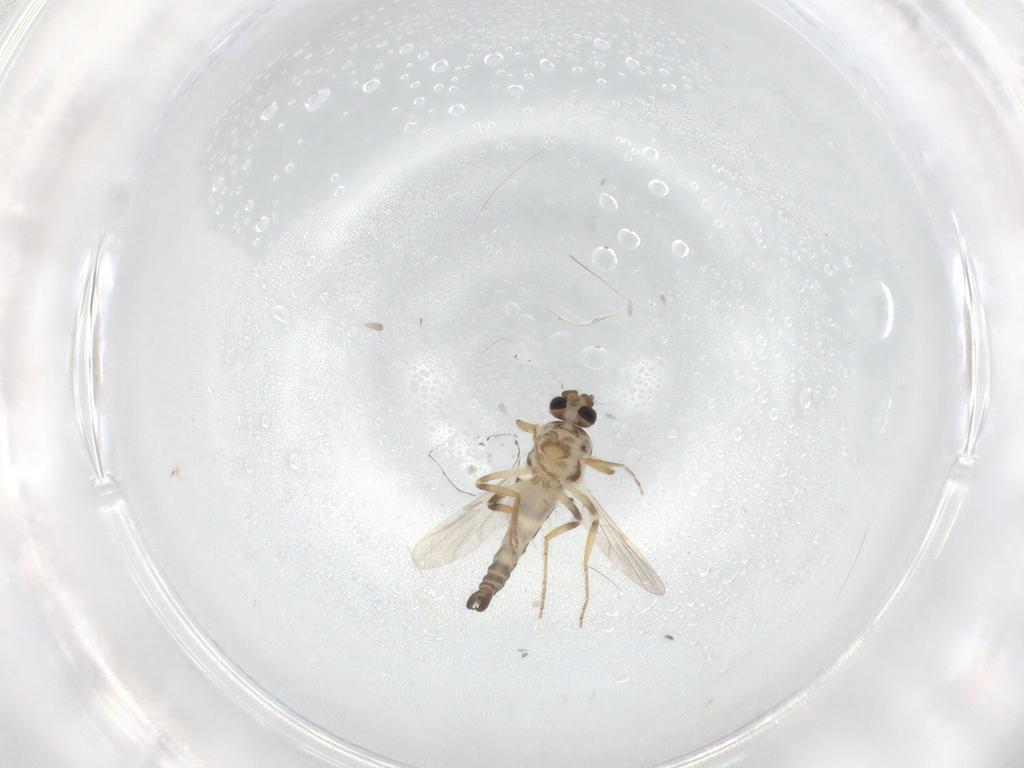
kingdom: Animalia
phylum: Arthropoda
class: Insecta
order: Diptera
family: Ceratopogonidae
